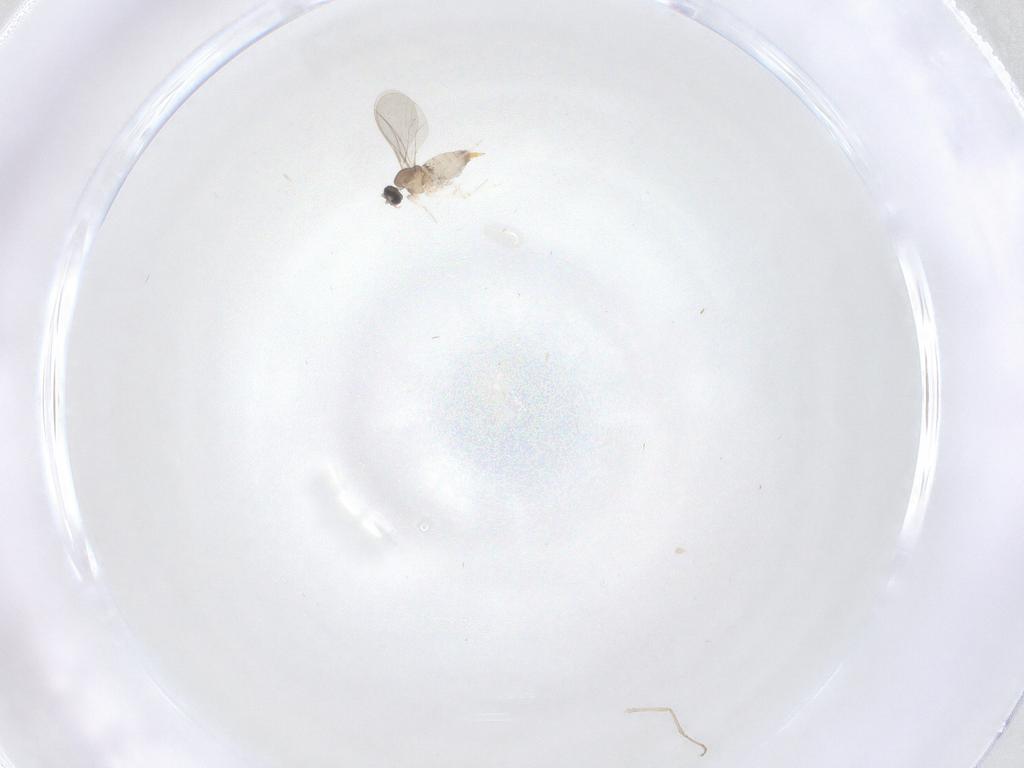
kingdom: Animalia
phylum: Arthropoda
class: Insecta
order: Diptera
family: Cecidomyiidae
